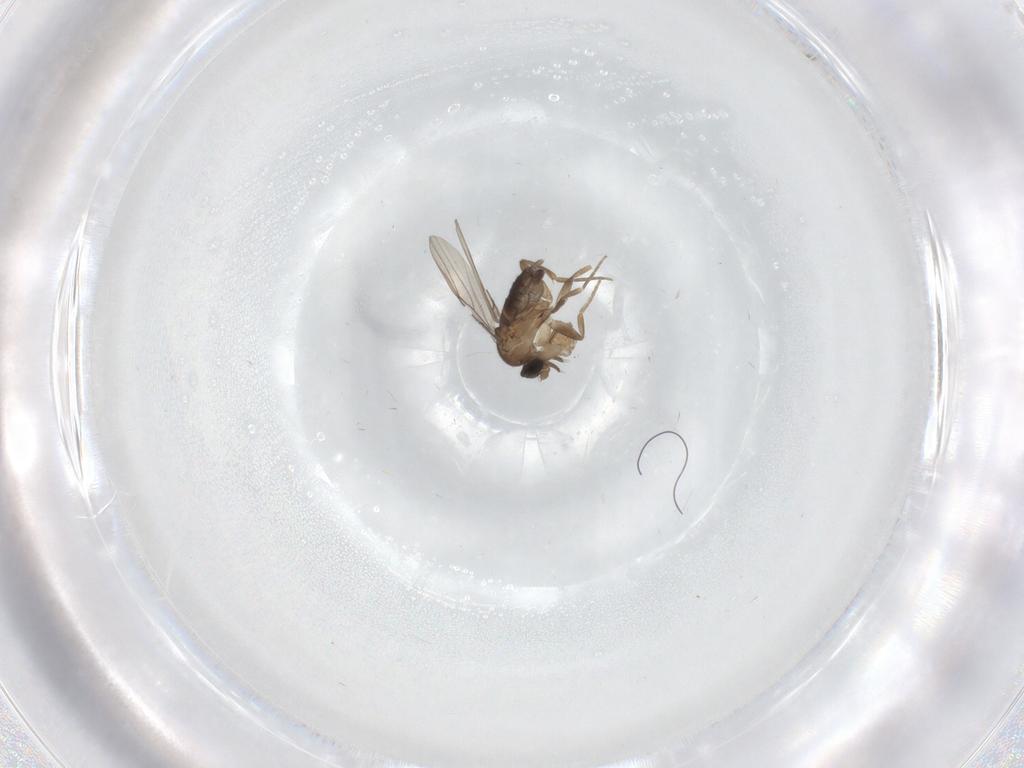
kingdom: Animalia
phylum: Arthropoda
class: Insecta
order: Diptera
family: Phoridae
